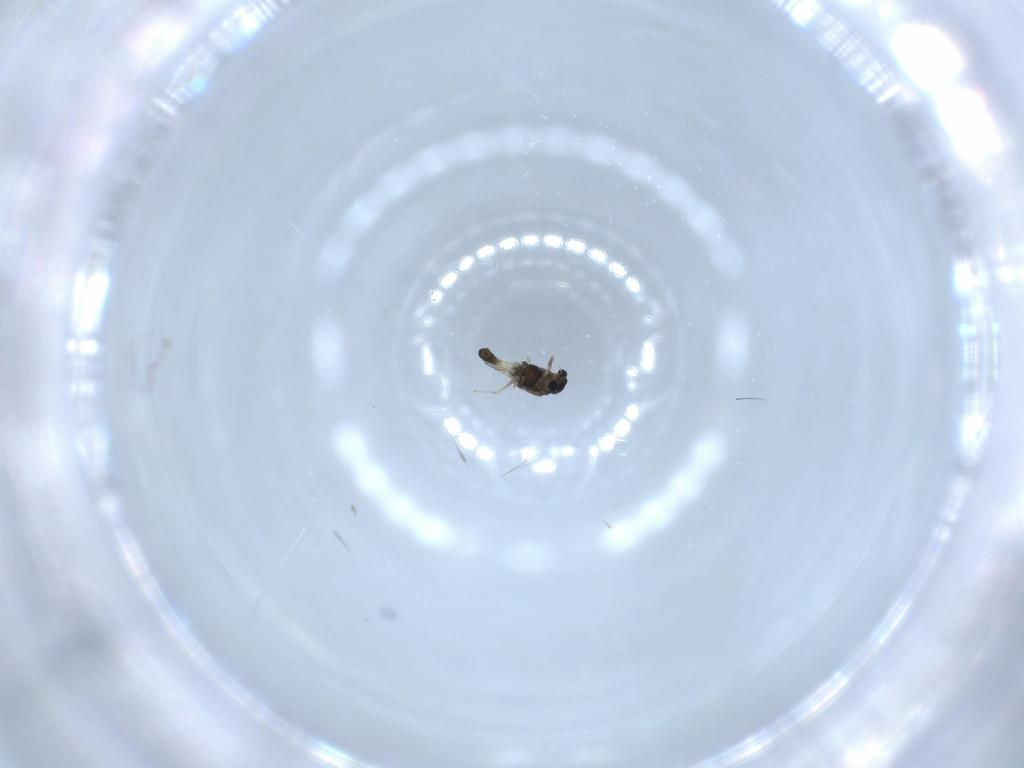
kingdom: Animalia
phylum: Arthropoda
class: Insecta
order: Diptera
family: Chironomidae
